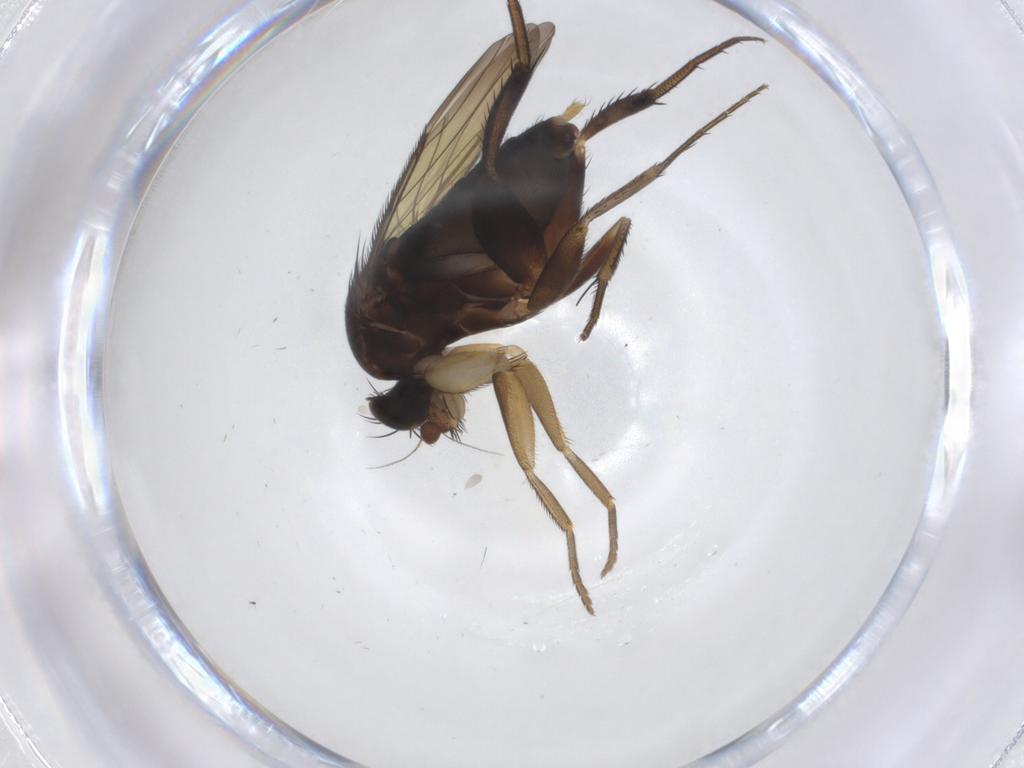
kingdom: Animalia
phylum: Arthropoda
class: Insecta
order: Diptera
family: Phoridae
